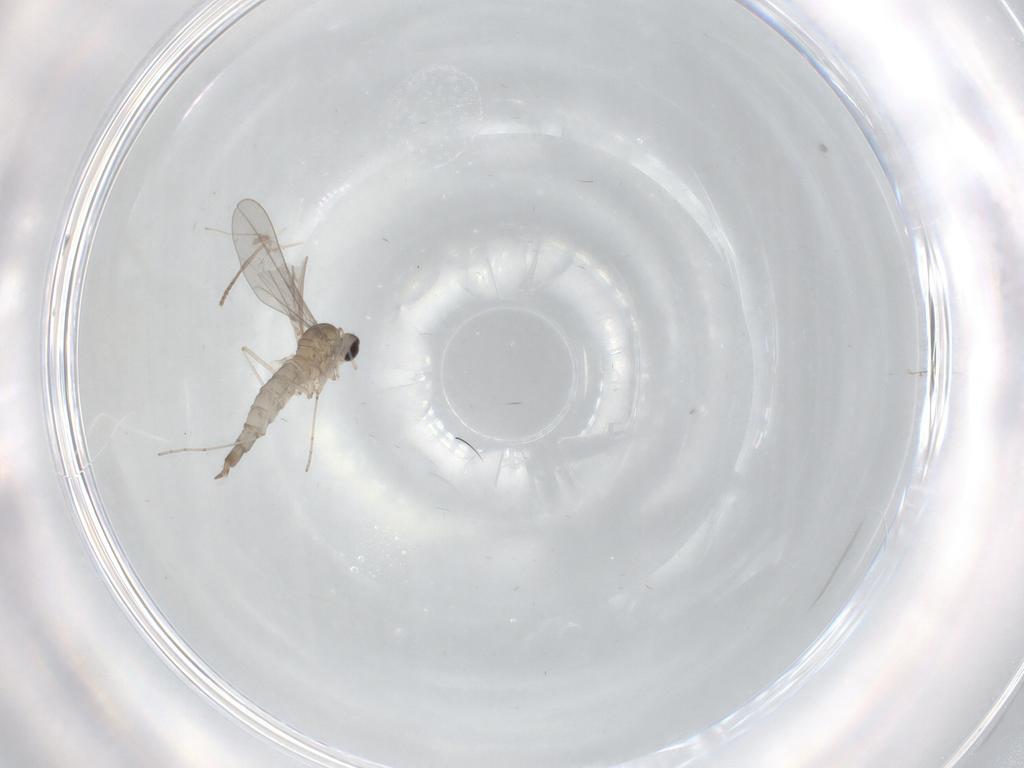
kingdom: Animalia
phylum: Arthropoda
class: Insecta
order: Diptera
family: Cecidomyiidae
